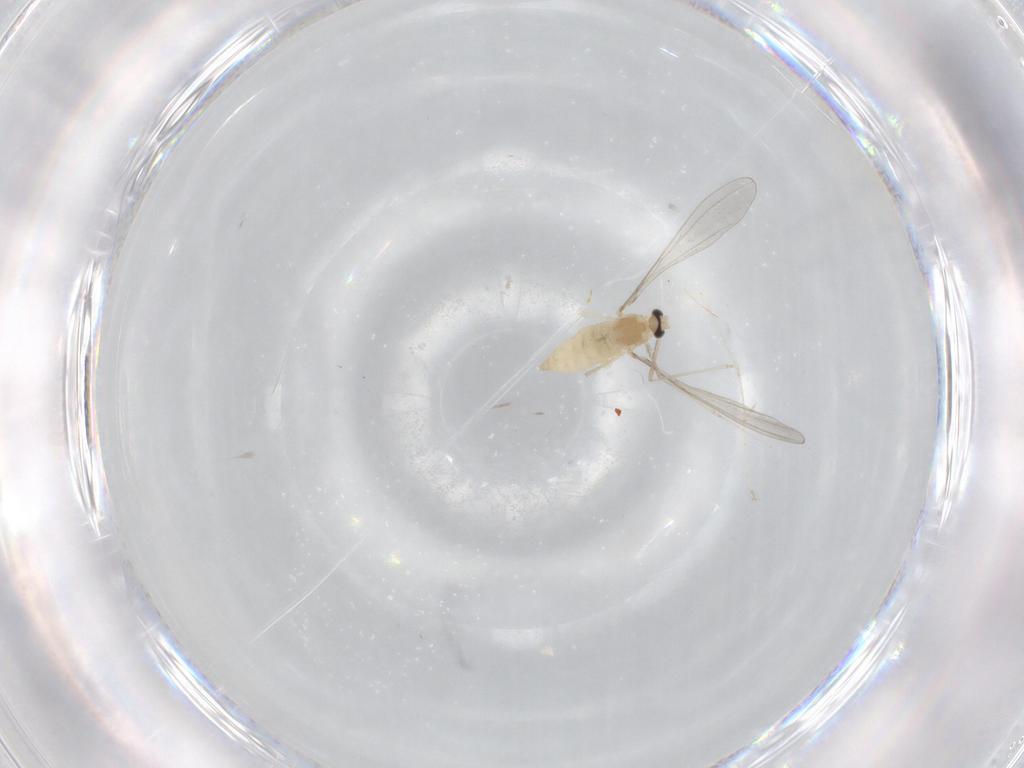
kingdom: Animalia
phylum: Arthropoda
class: Insecta
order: Diptera
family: Cecidomyiidae
